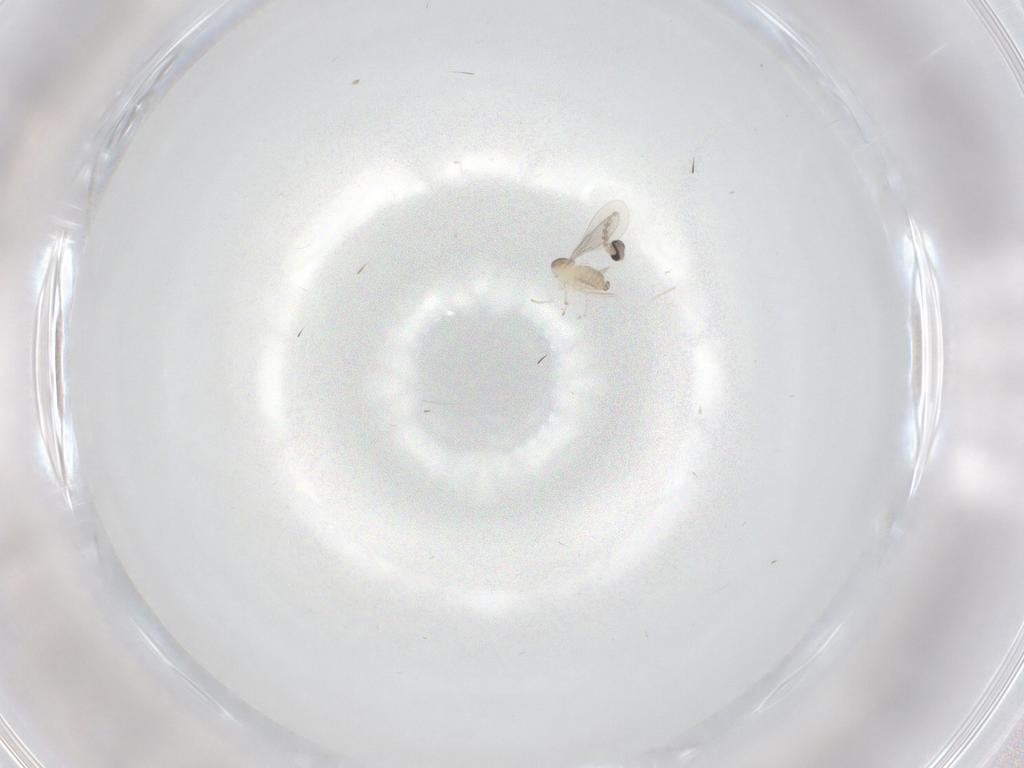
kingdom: Animalia
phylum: Arthropoda
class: Insecta
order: Diptera
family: Cecidomyiidae
